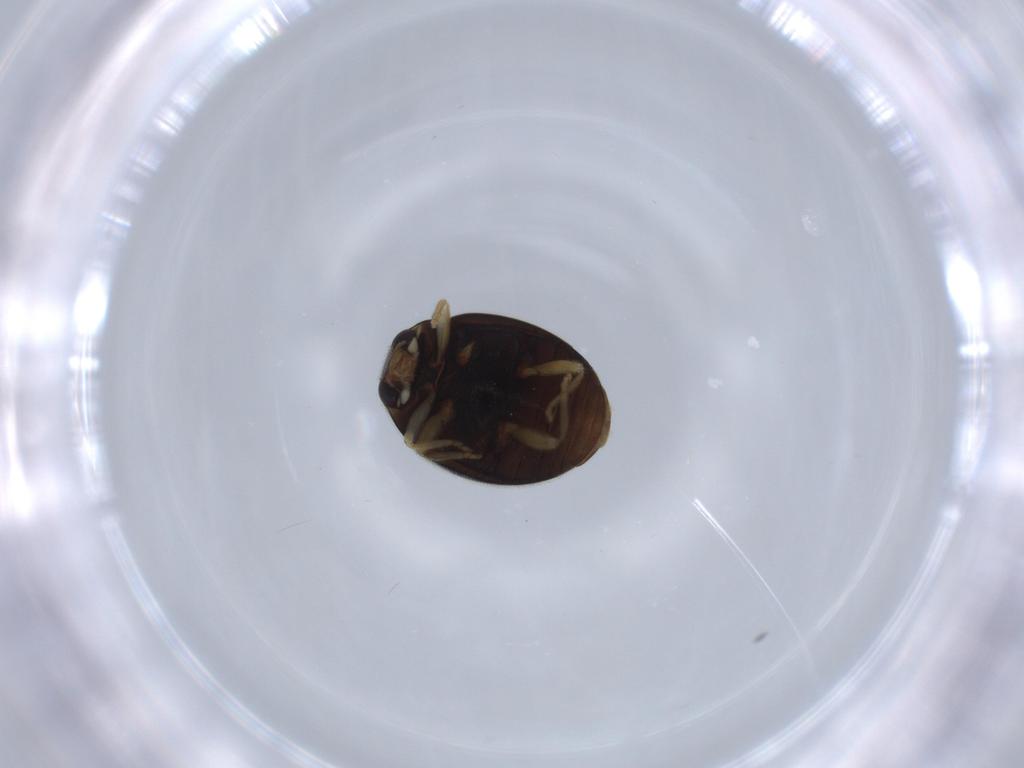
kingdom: Animalia
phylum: Arthropoda
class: Insecta
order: Coleoptera
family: Coccinellidae
